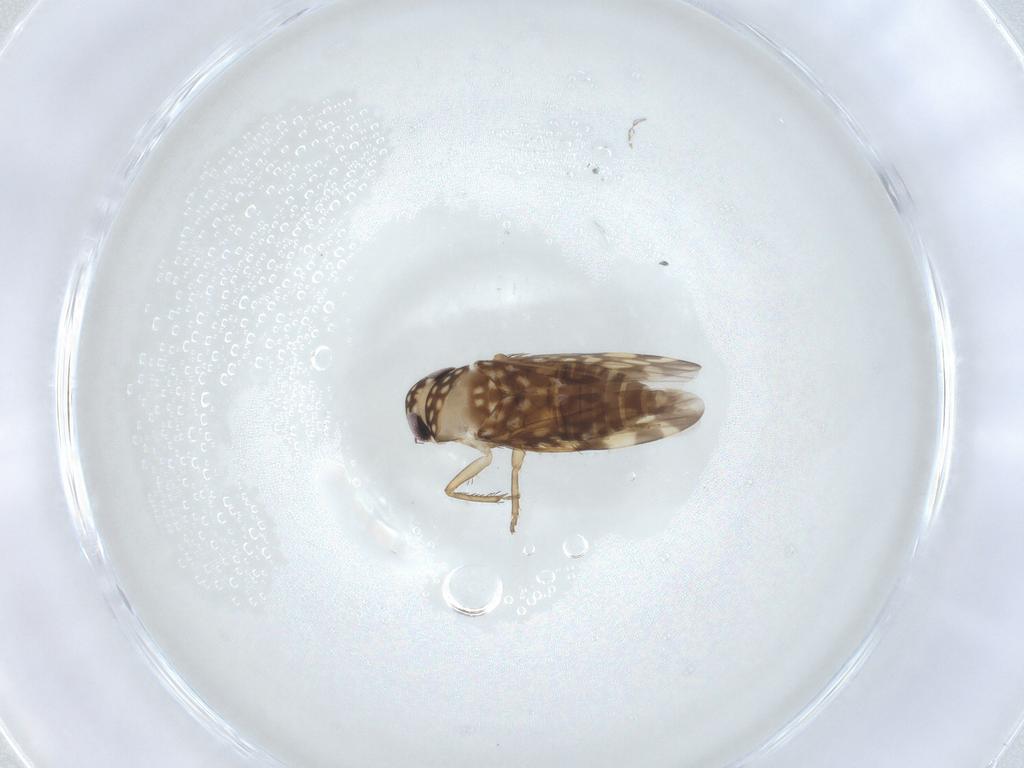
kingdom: Animalia
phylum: Arthropoda
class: Insecta
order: Hemiptera
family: Cicadellidae
